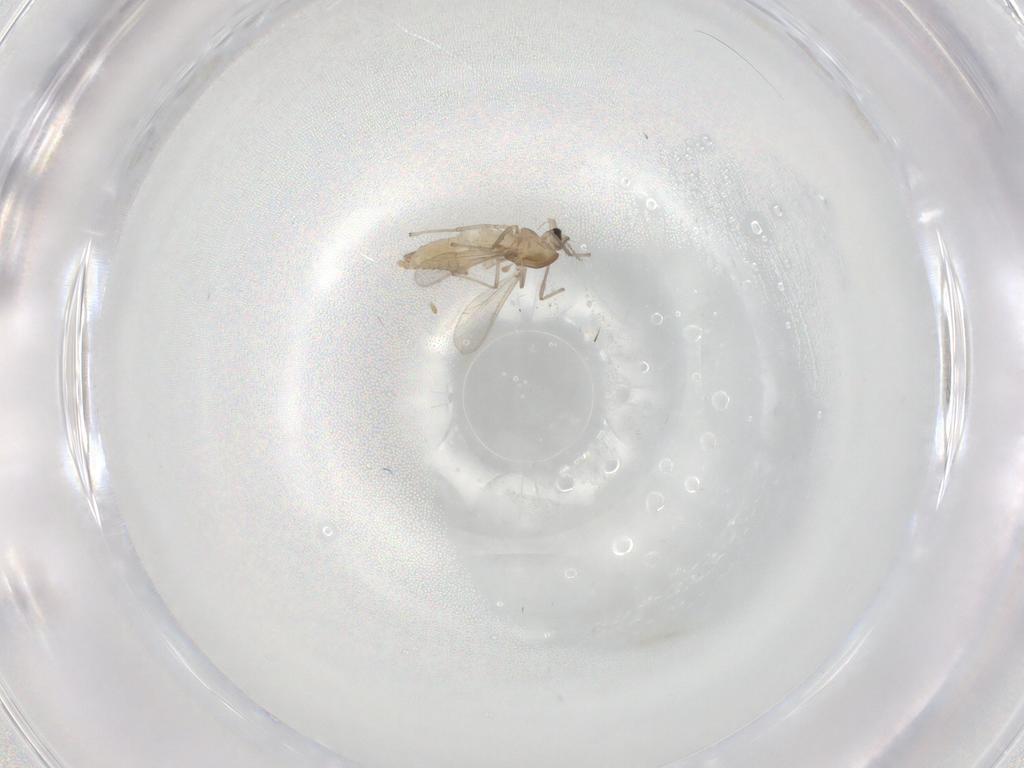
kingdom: Animalia
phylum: Arthropoda
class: Insecta
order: Diptera
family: Chironomidae
